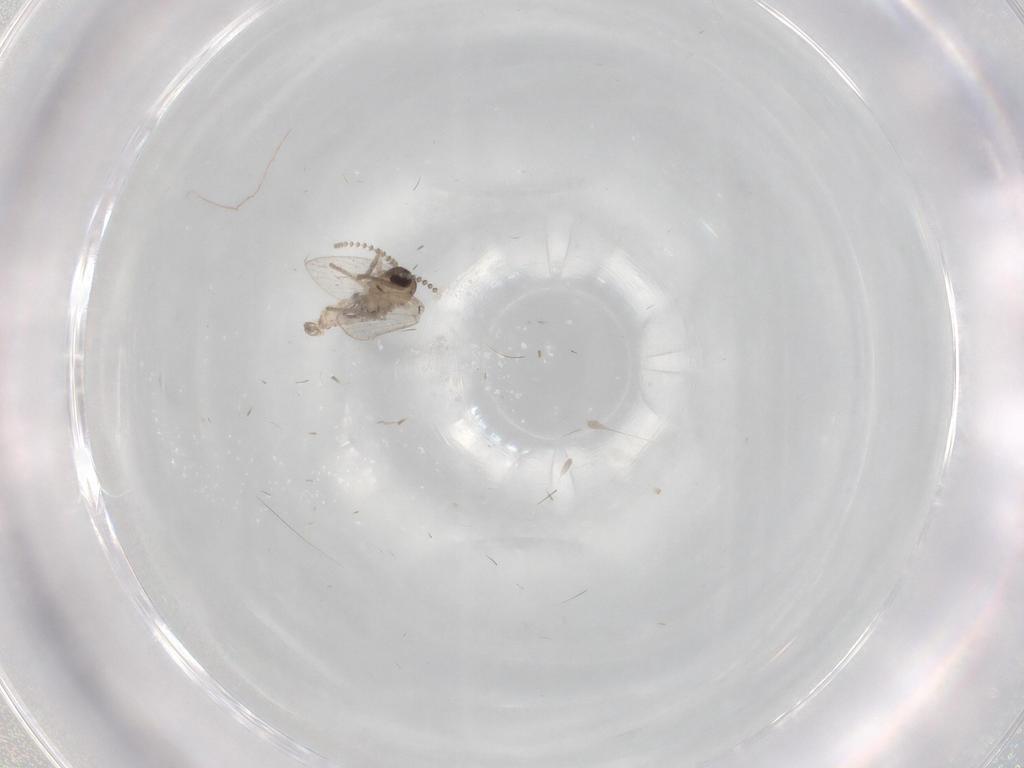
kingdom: Animalia
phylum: Arthropoda
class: Insecta
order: Diptera
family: Psychodidae
